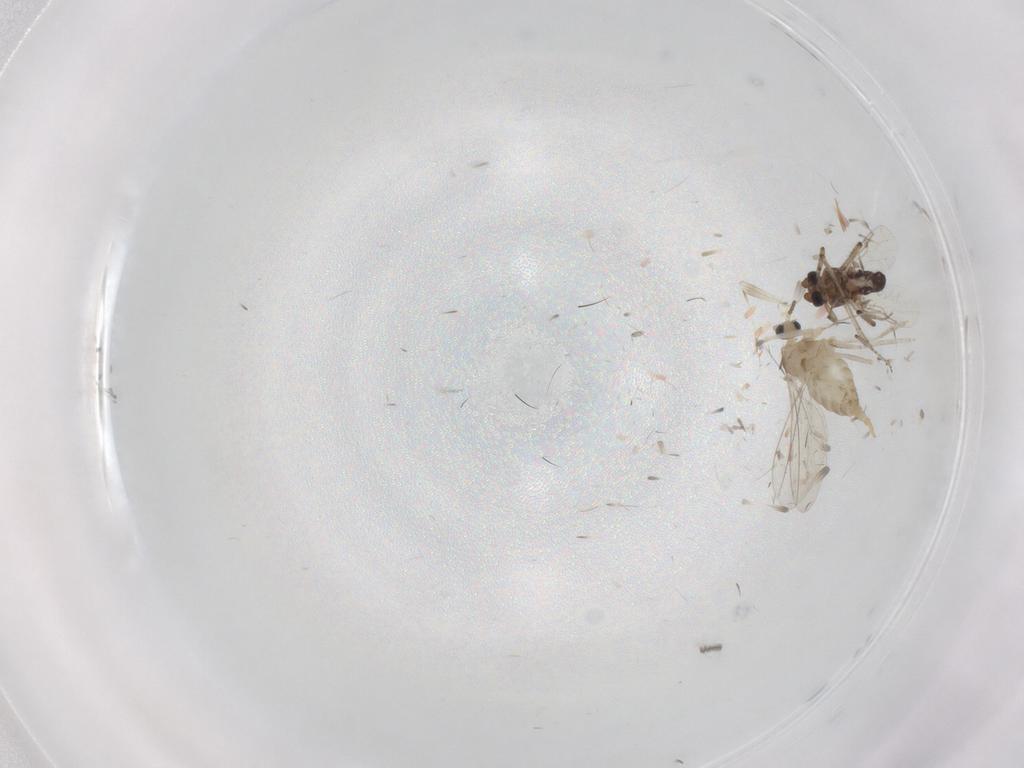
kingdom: Animalia
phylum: Arthropoda
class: Insecta
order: Diptera
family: Cecidomyiidae
